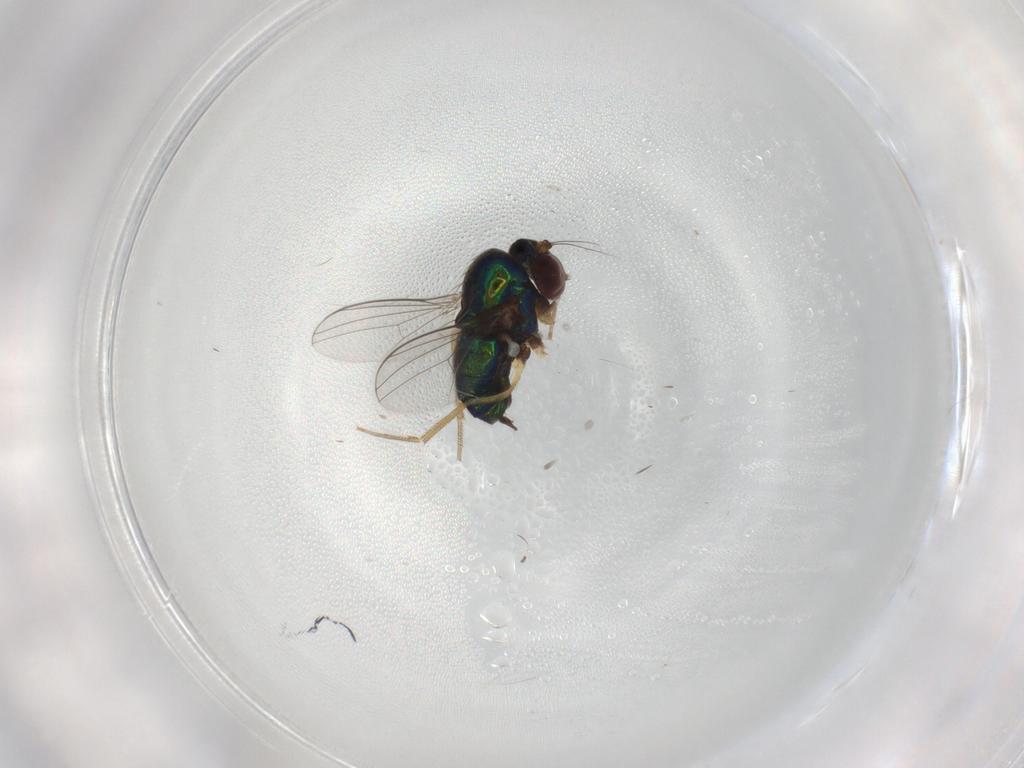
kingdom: Animalia
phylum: Arthropoda
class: Insecta
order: Diptera
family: Dolichopodidae
